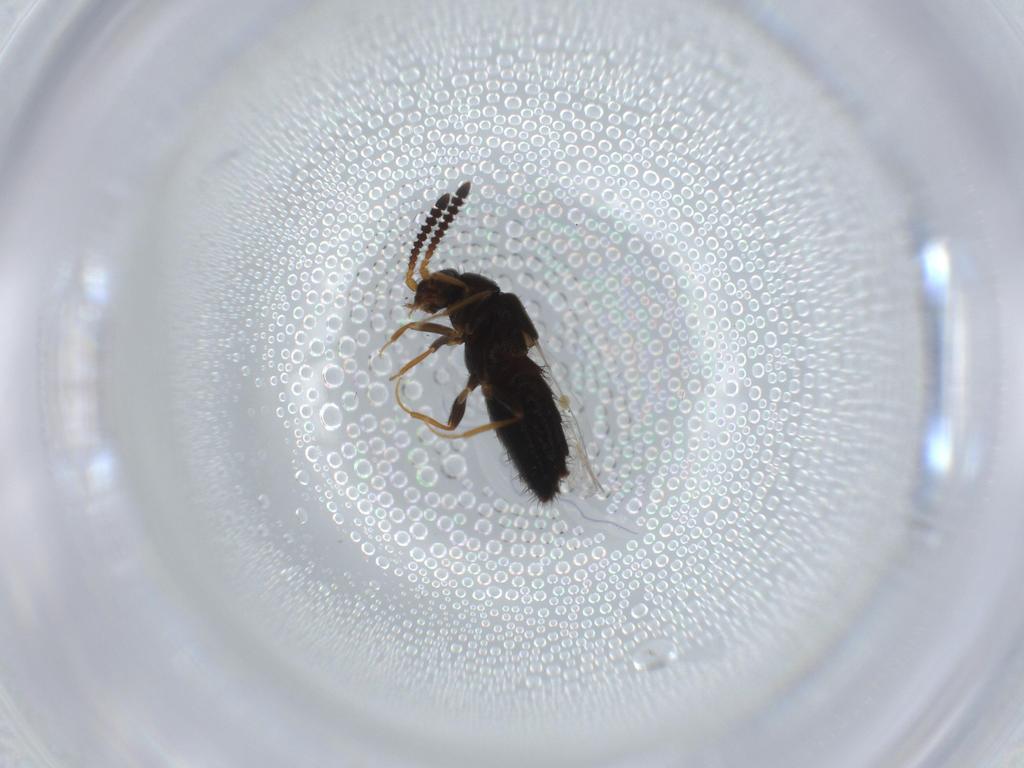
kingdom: Animalia
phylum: Arthropoda
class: Insecta
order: Coleoptera
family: Staphylinidae
